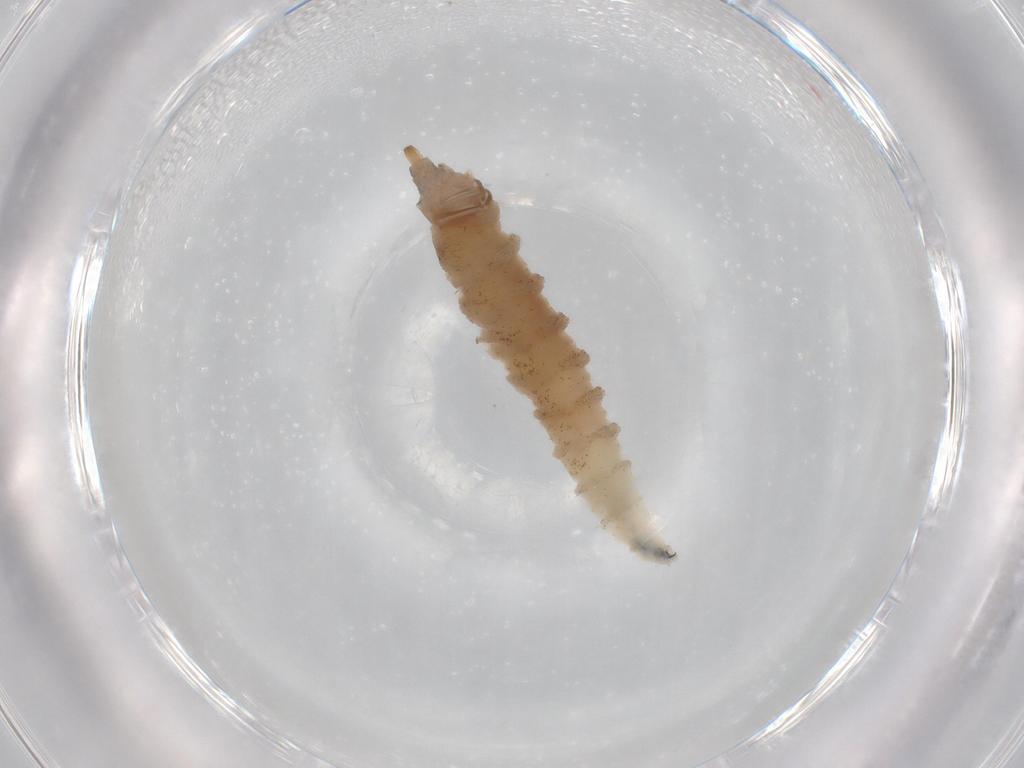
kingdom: Animalia
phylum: Arthropoda
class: Insecta
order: Diptera
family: Drosophilidae
